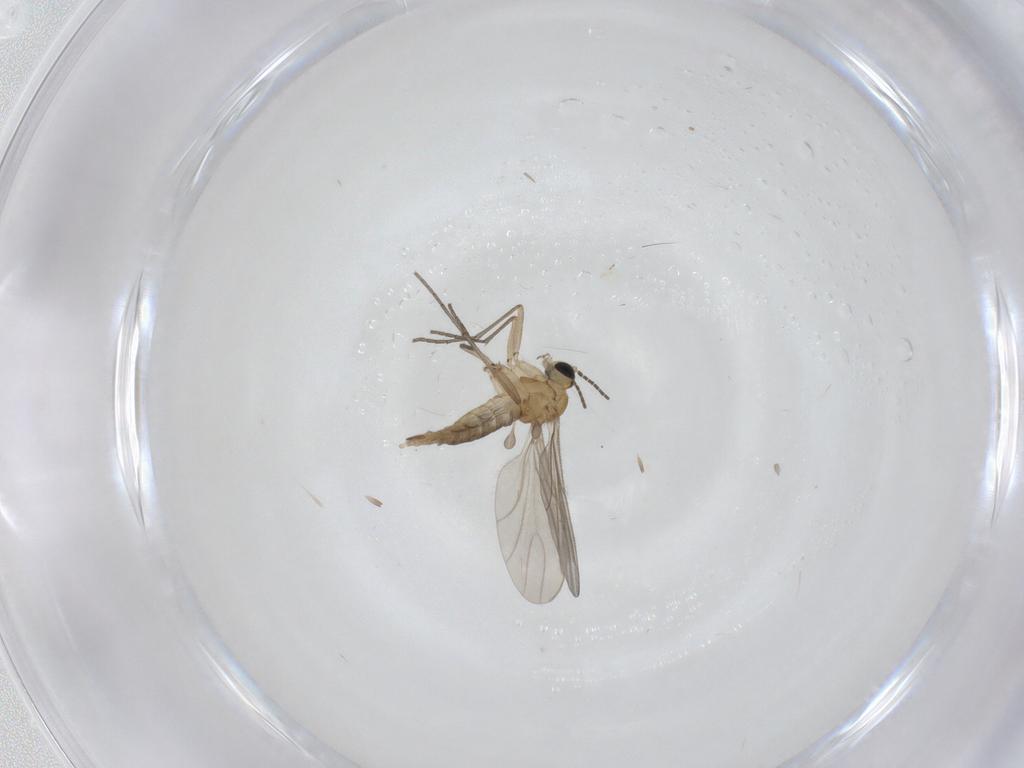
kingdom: Animalia
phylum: Arthropoda
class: Insecta
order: Diptera
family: Sciaridae
